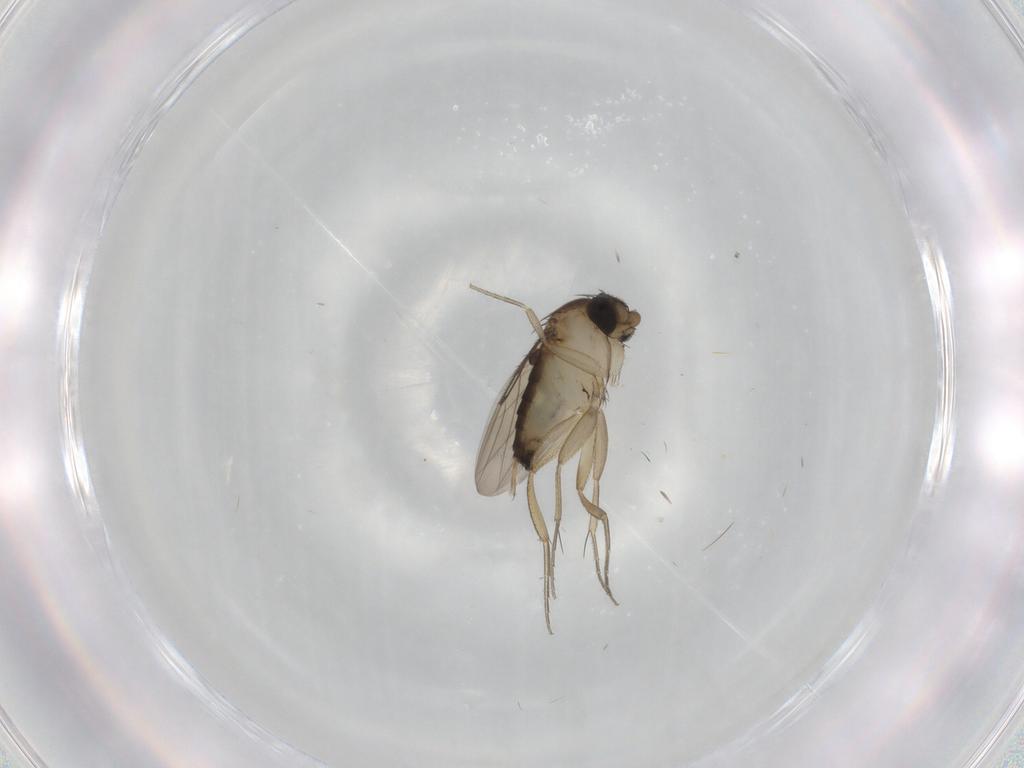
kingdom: Animalia
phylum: Arthropoda
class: Insecta
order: Diptera
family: Phoridae
